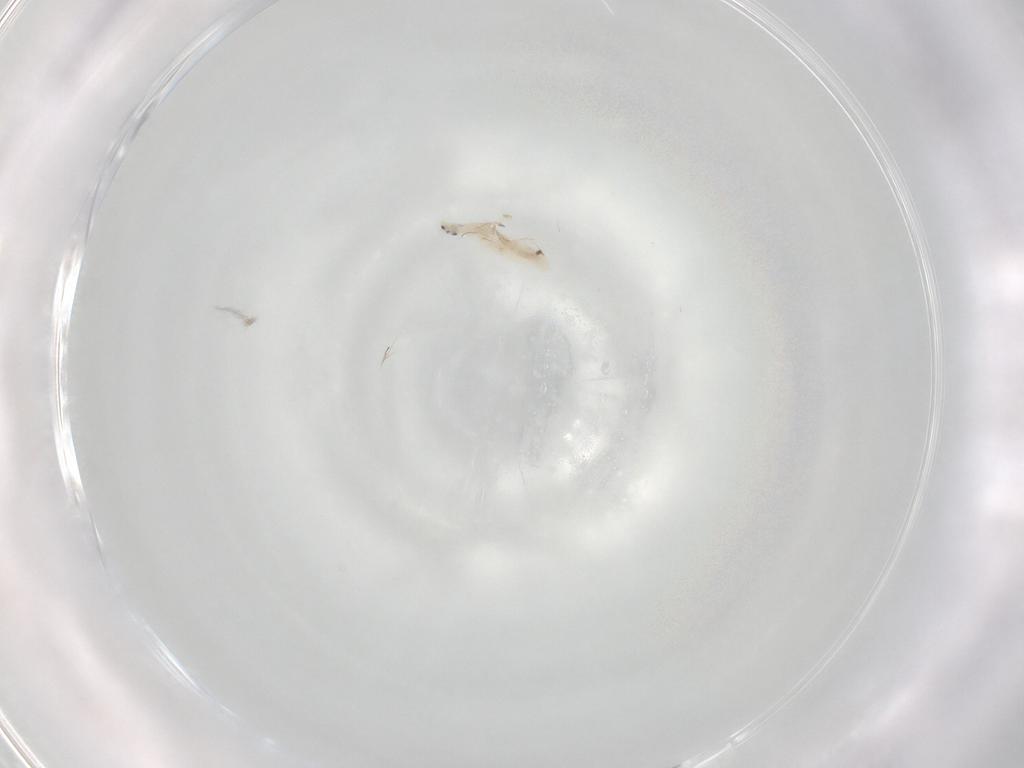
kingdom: Animalia
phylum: Arthropoda
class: Collembola
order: Entomobryomorpha
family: Entomobryidae
